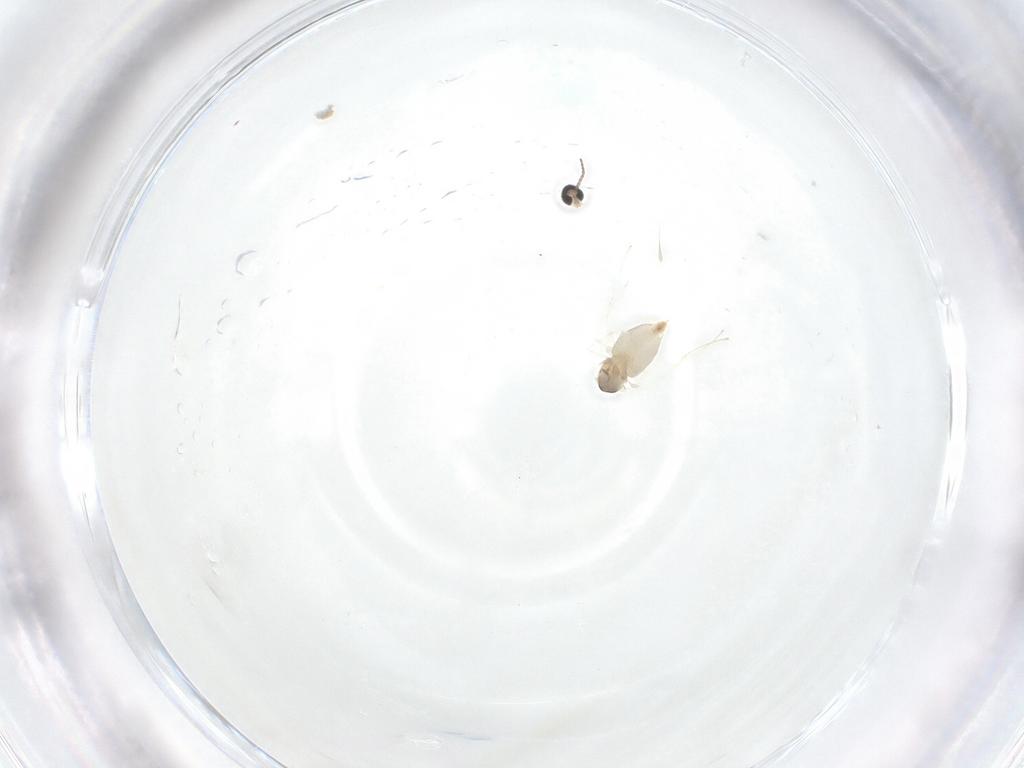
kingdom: Animalia
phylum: Arthropoda
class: Insecta
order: Diptera
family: Cecidomyiidae
